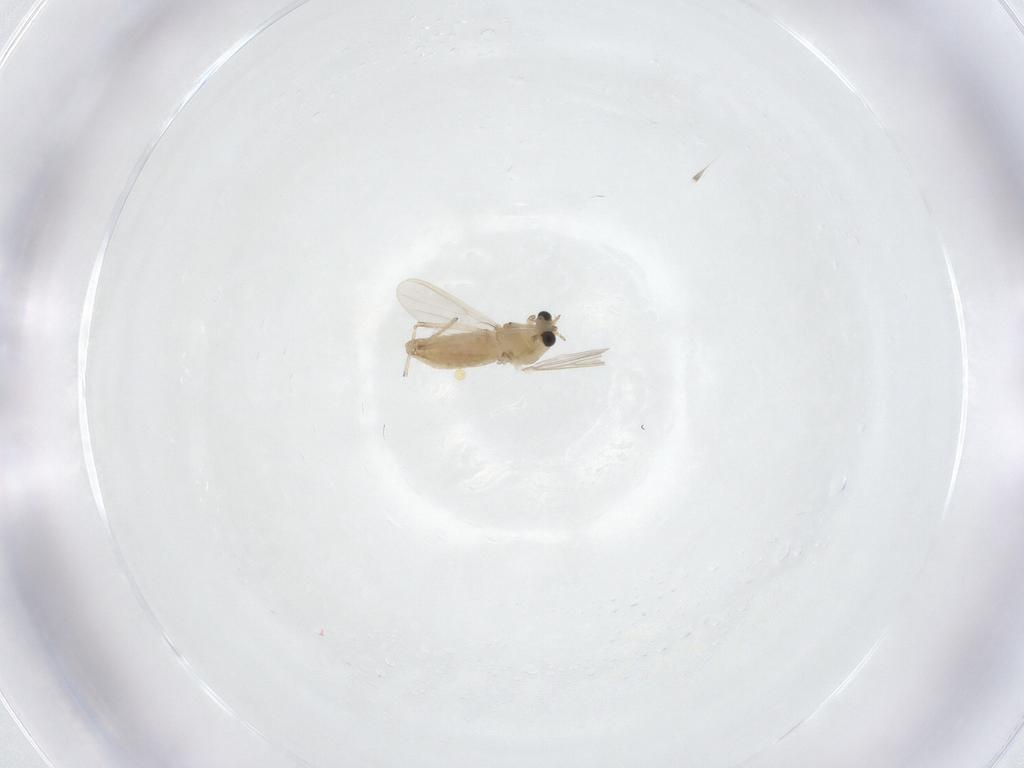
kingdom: Animalia
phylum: Arthropoda
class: Insecta
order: Diptera
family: Chironomidae
